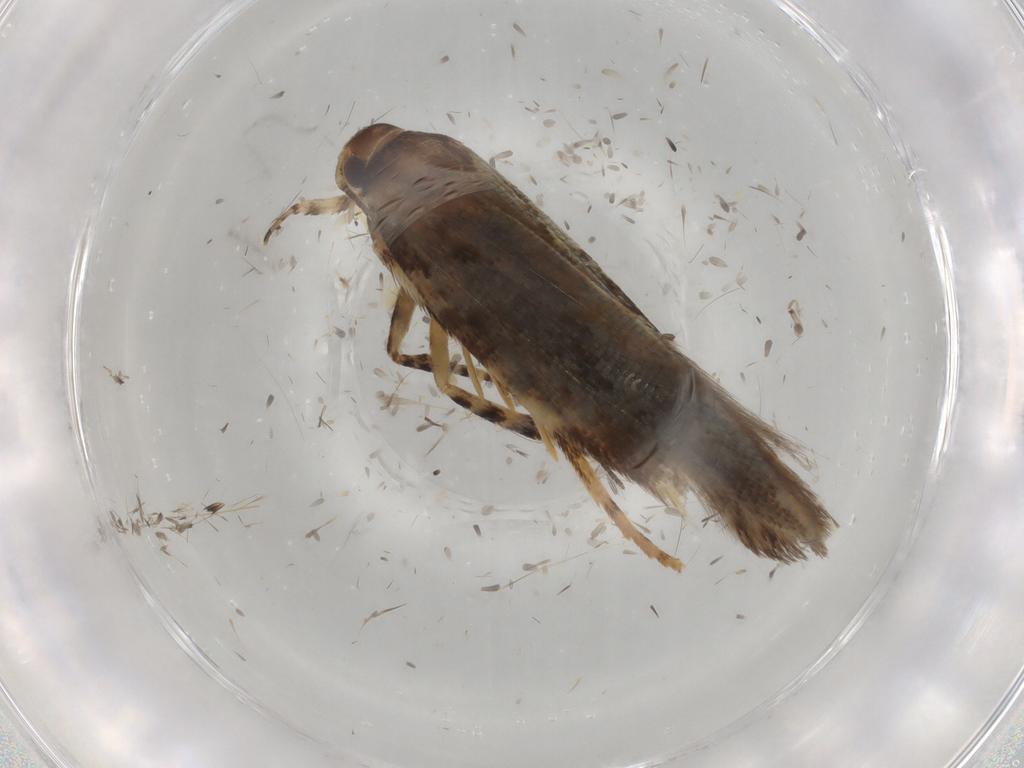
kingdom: Animalia
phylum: Arthropoda
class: Insecta
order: Lepidoptera
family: Gelechiidae
